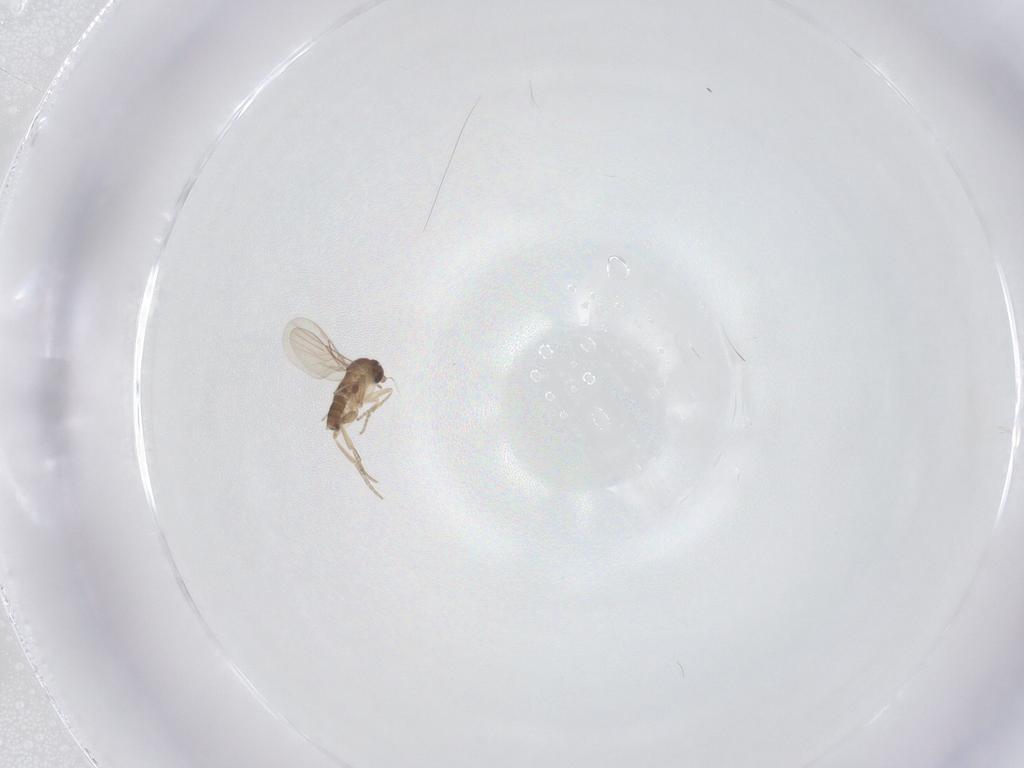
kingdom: Animalia
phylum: Arthropoda
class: Insecta
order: Diptera
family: Phoridae
